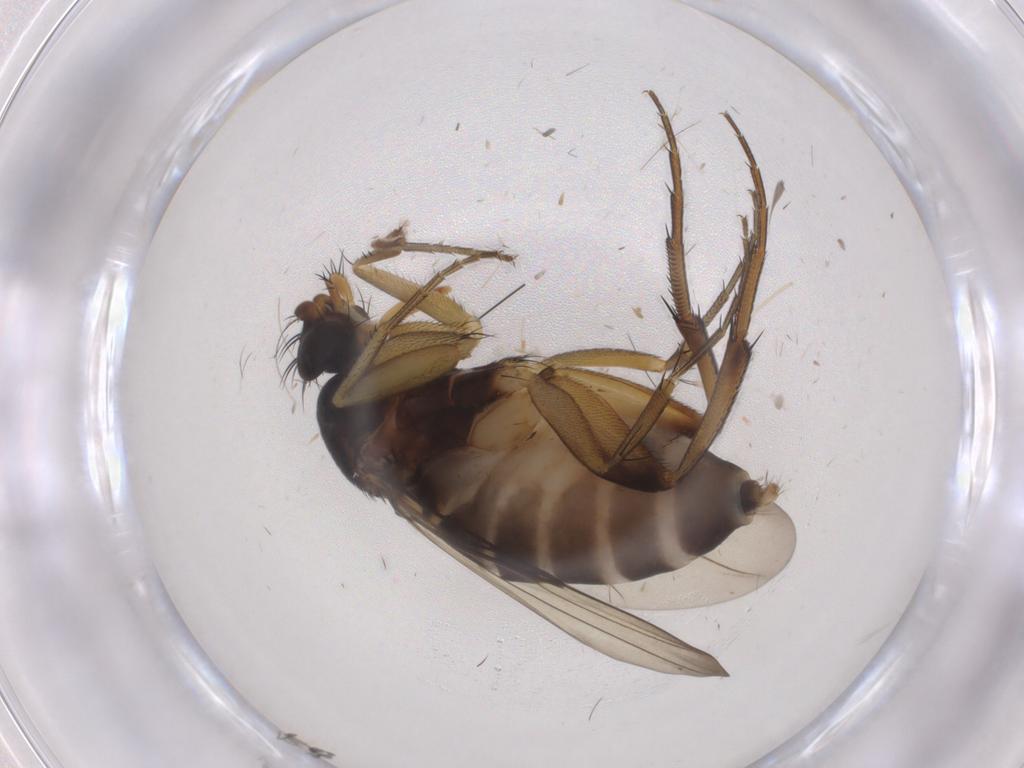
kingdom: Animalia
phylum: Arthropoda
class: Insecta
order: Diptera
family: Phoridae
